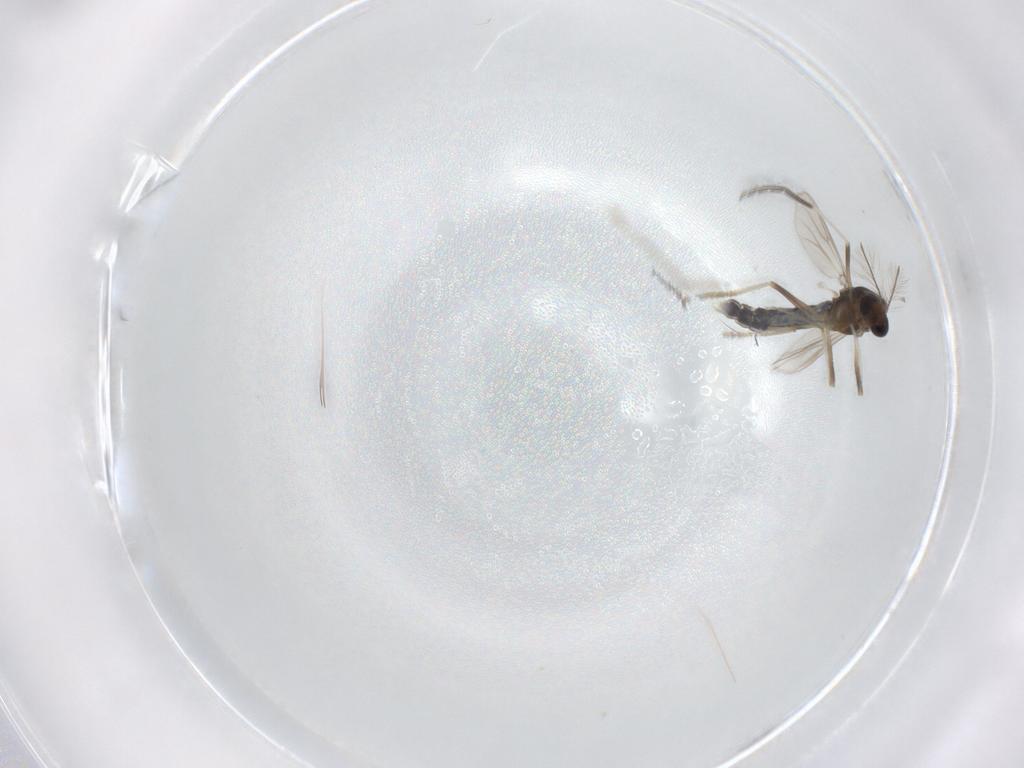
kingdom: Animalia
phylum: Arthropoda
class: Insecta
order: Diptera
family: Chironomidae
